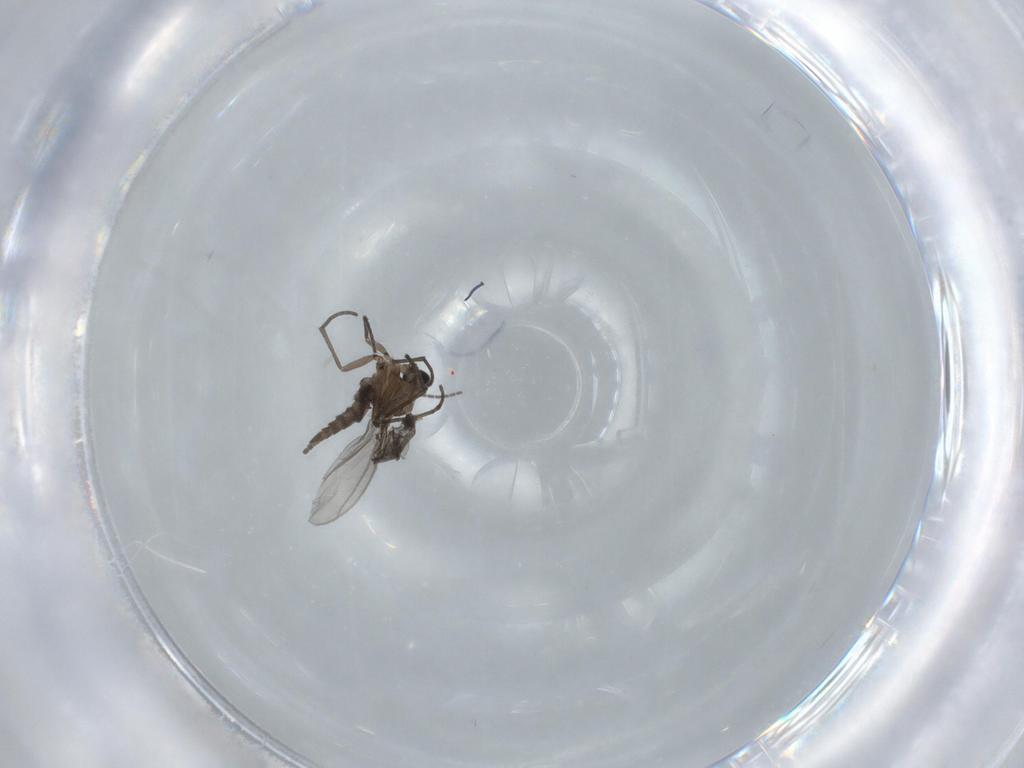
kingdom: Animalia
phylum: Arthropoda
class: Insecta
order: Diptera
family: Cecidomyiidae
